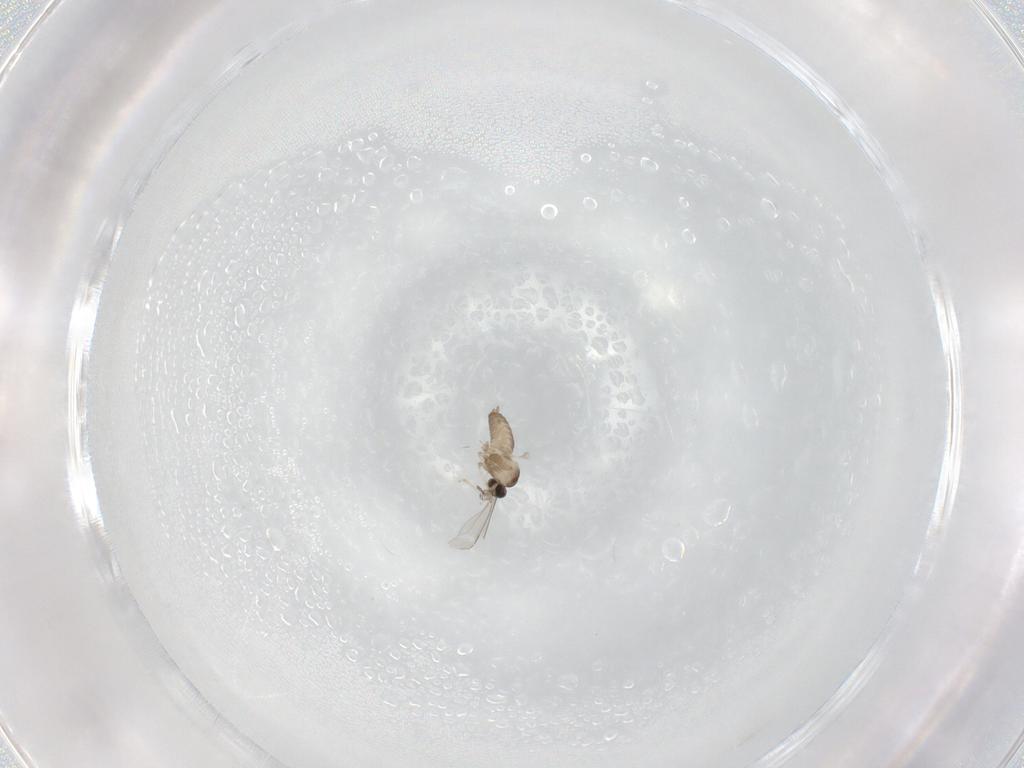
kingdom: Animalia
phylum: Arthropoda
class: Insecta
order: Diptera
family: Cecidomyiidae
